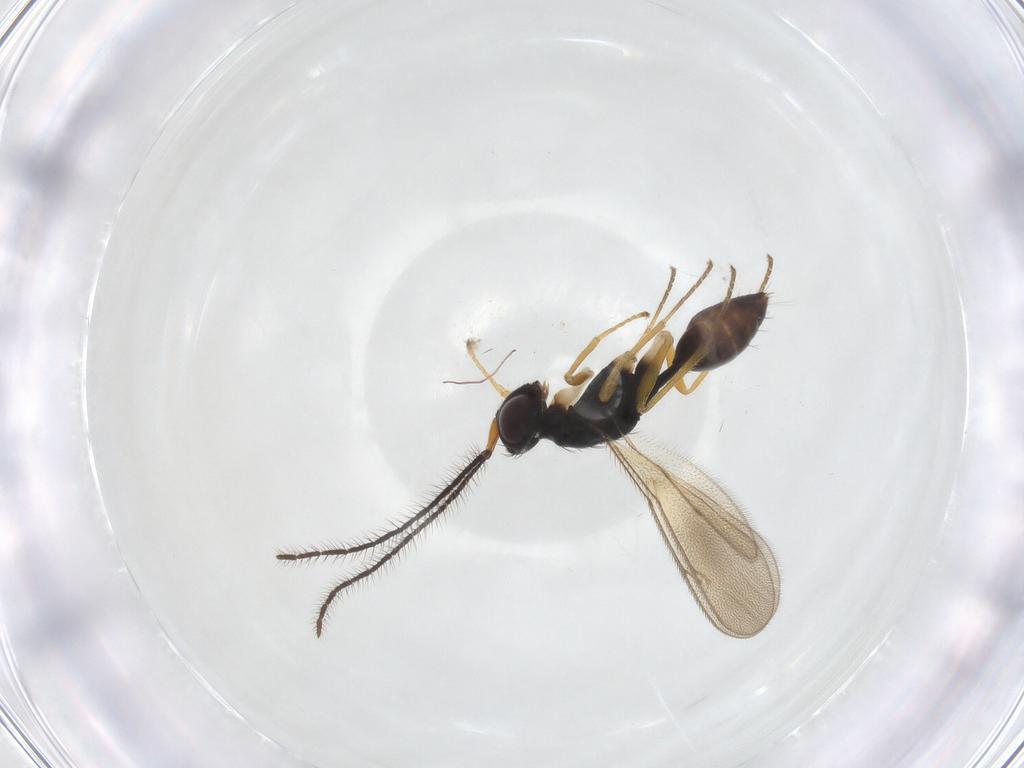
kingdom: Animalia
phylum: Arthropoda
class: Insecta
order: Hymenoptera
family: Diparidae
